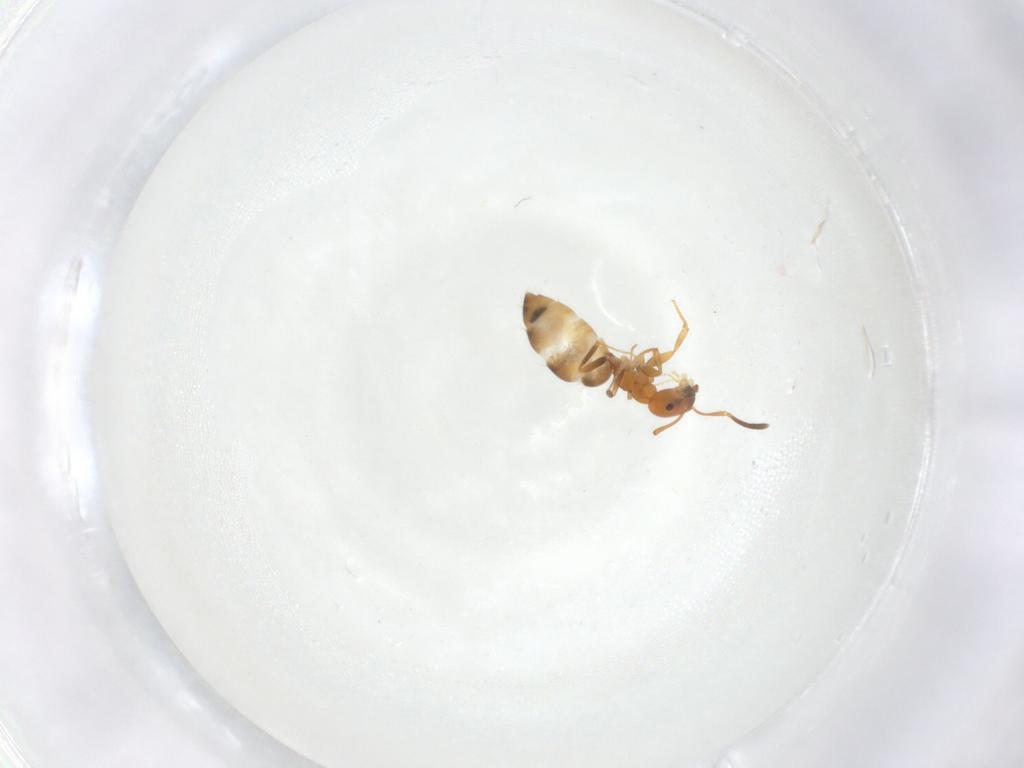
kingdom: Animalia
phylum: Arthropoda
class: Insecta
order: Hymenoptera
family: Formicidae
